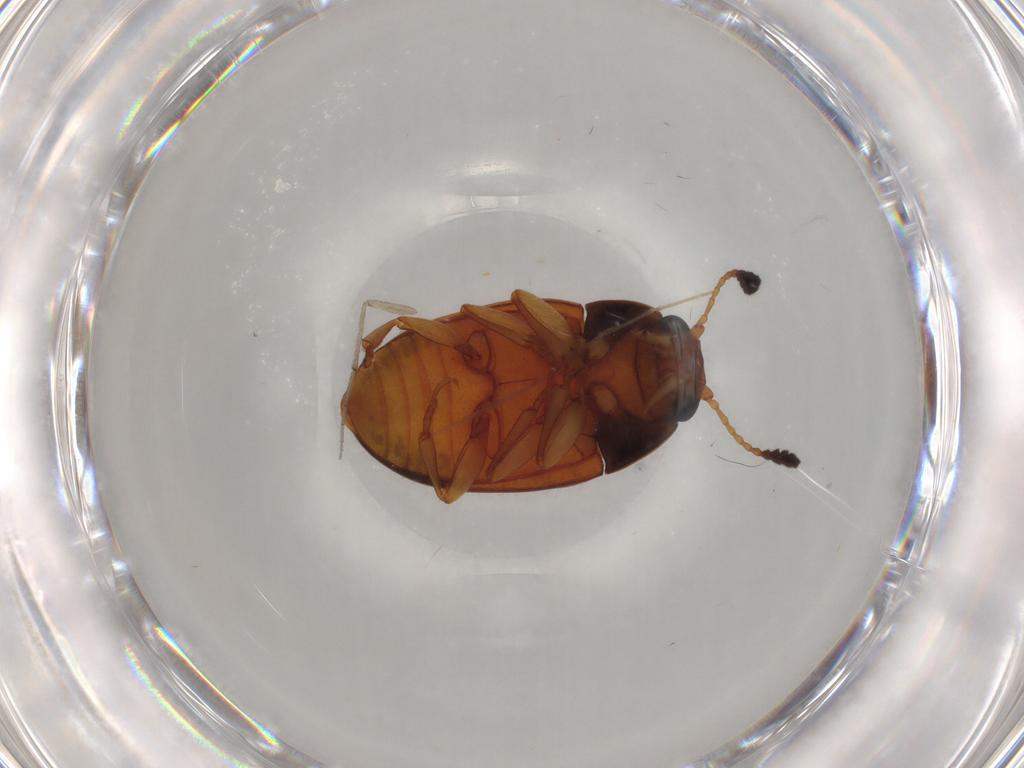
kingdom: Animalia
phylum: Arthropoda
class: Insecta
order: Coleoptera
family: Erotylidae
